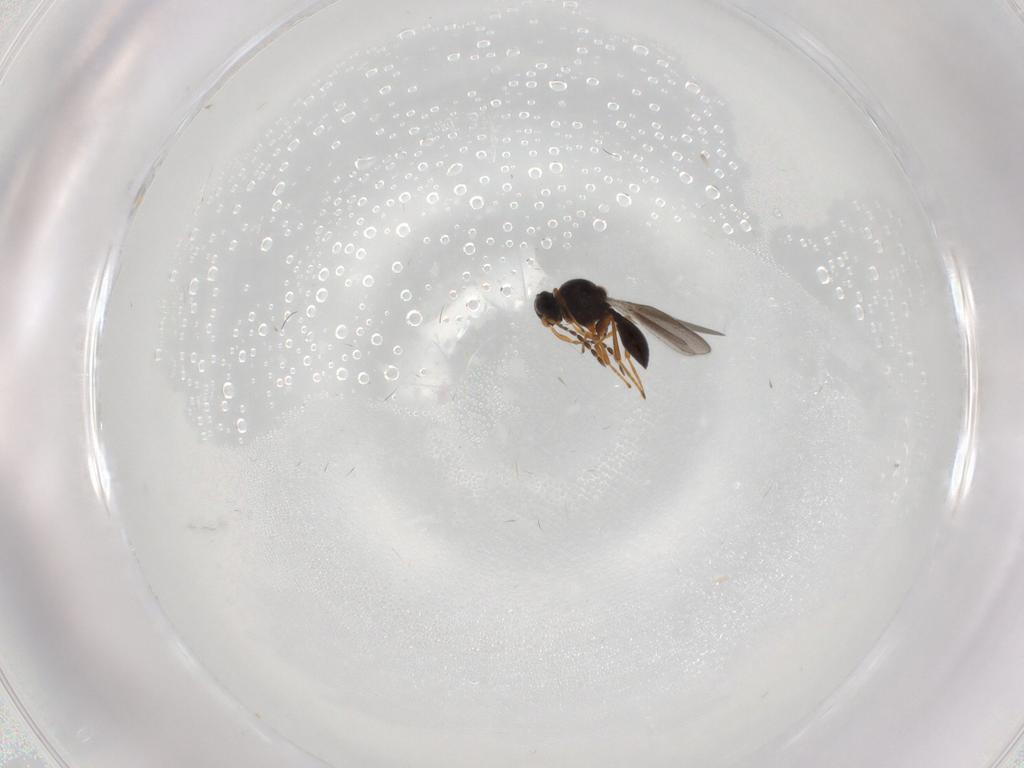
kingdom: Animalia
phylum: Arthropoda
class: Insecta
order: Hymenoptera
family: Platygastridae
